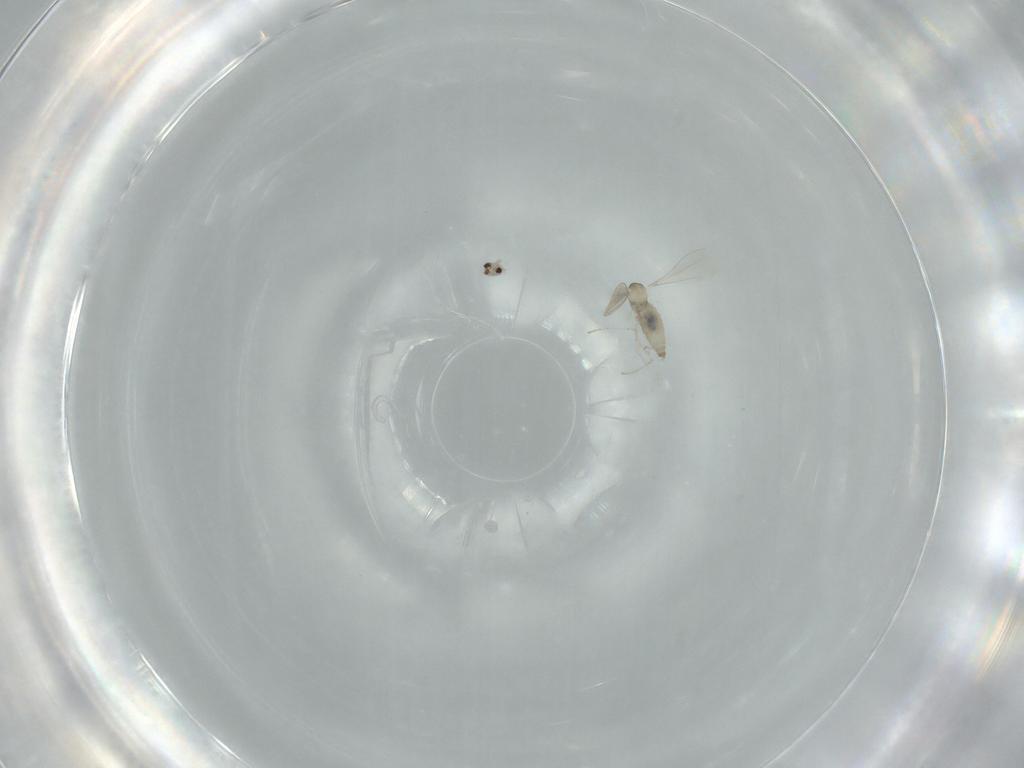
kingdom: Animalia
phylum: Arthropoda
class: Insecta
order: Diptera
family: Cecidomyiidae
